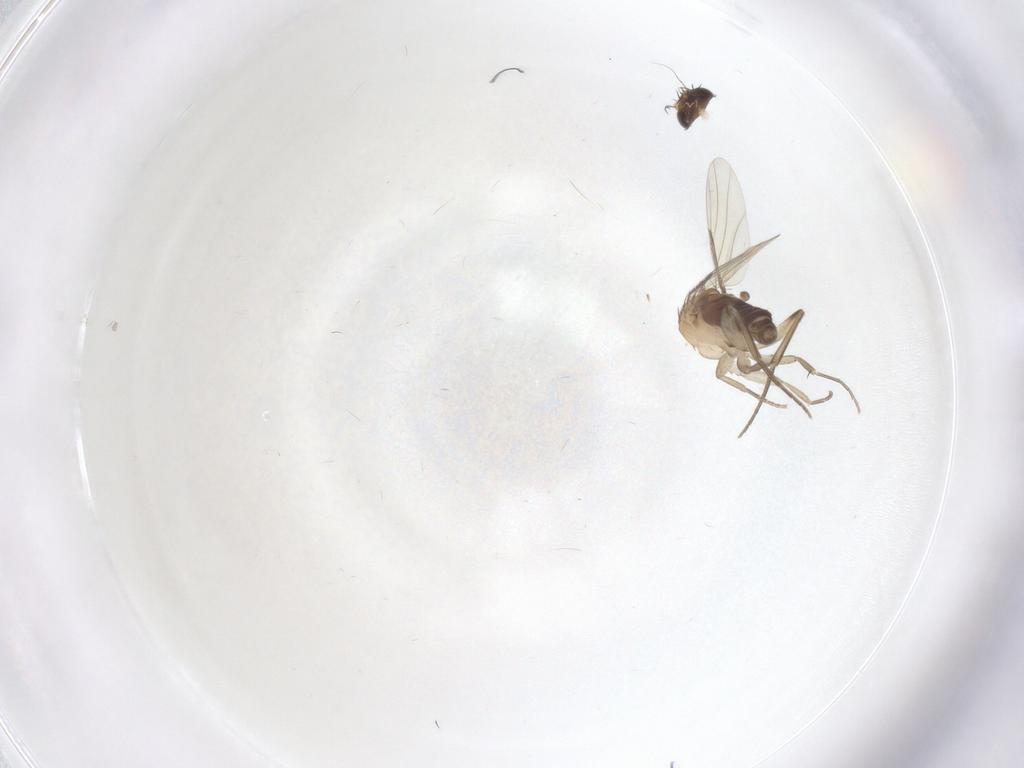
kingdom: Animalia
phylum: Arthropoda
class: Insecta
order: Diptera
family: Phoridae
